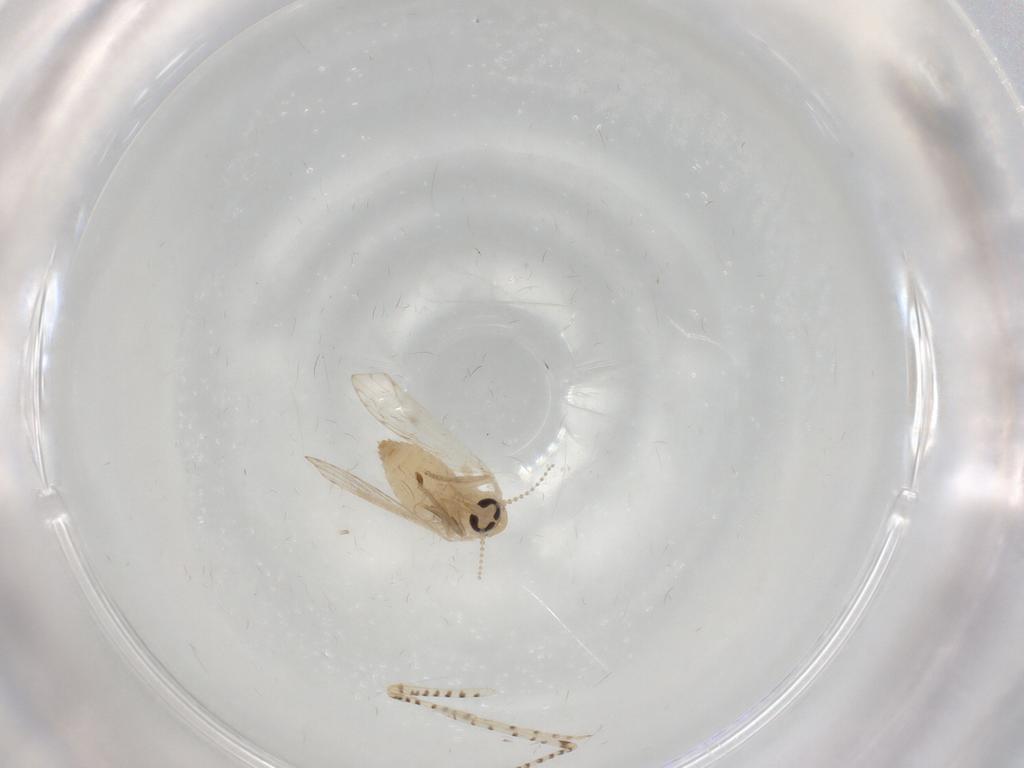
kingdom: Animalia
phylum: Arthropoda
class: Insecta
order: Diptera
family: Psychodidae
